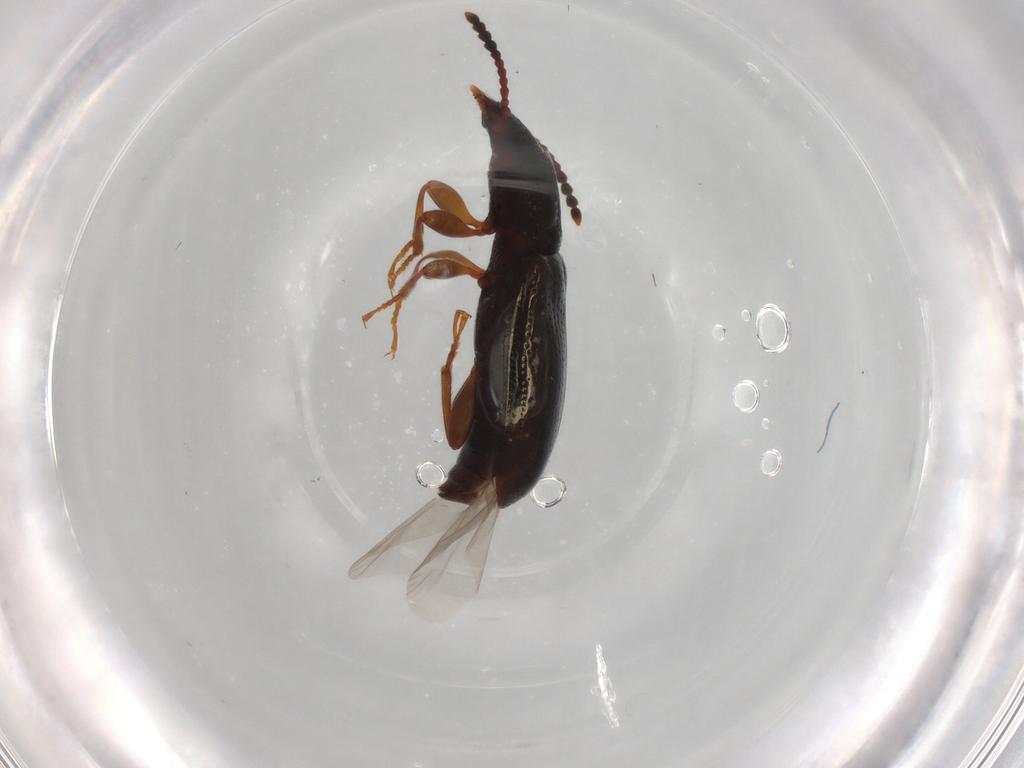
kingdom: Animalia
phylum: Arthropoda
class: Insecta
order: Coleoptera
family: Salpingidae
